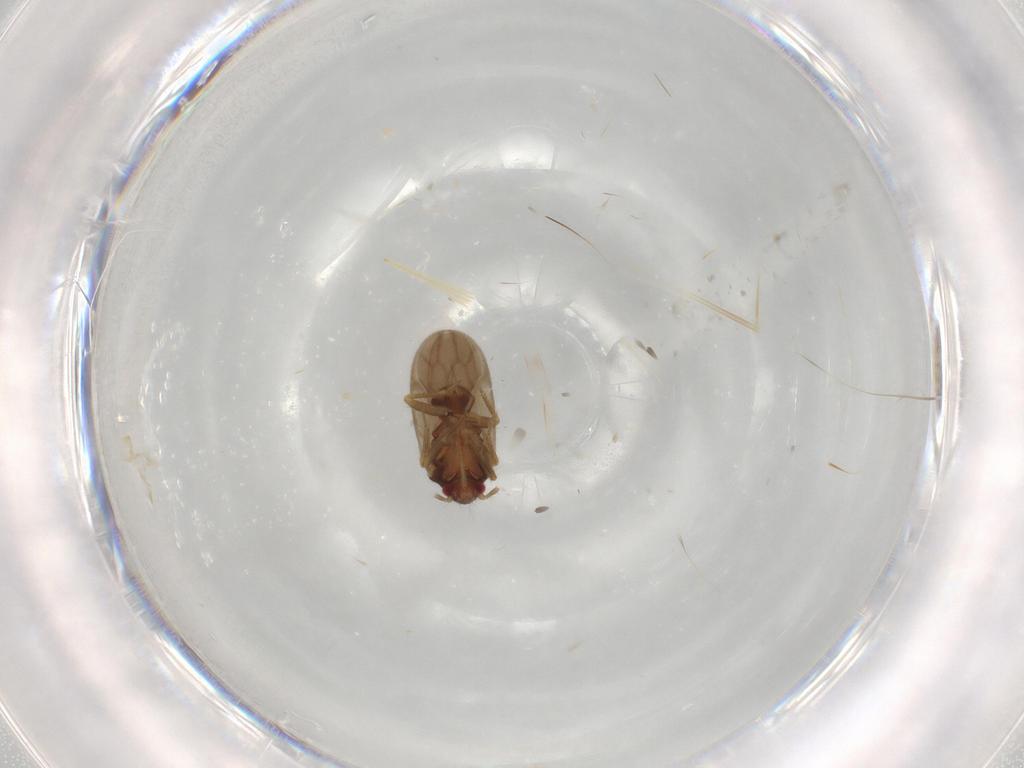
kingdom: Animalia
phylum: Arthropoda
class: Insecta
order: Hemiptera
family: Ceratocombidae
